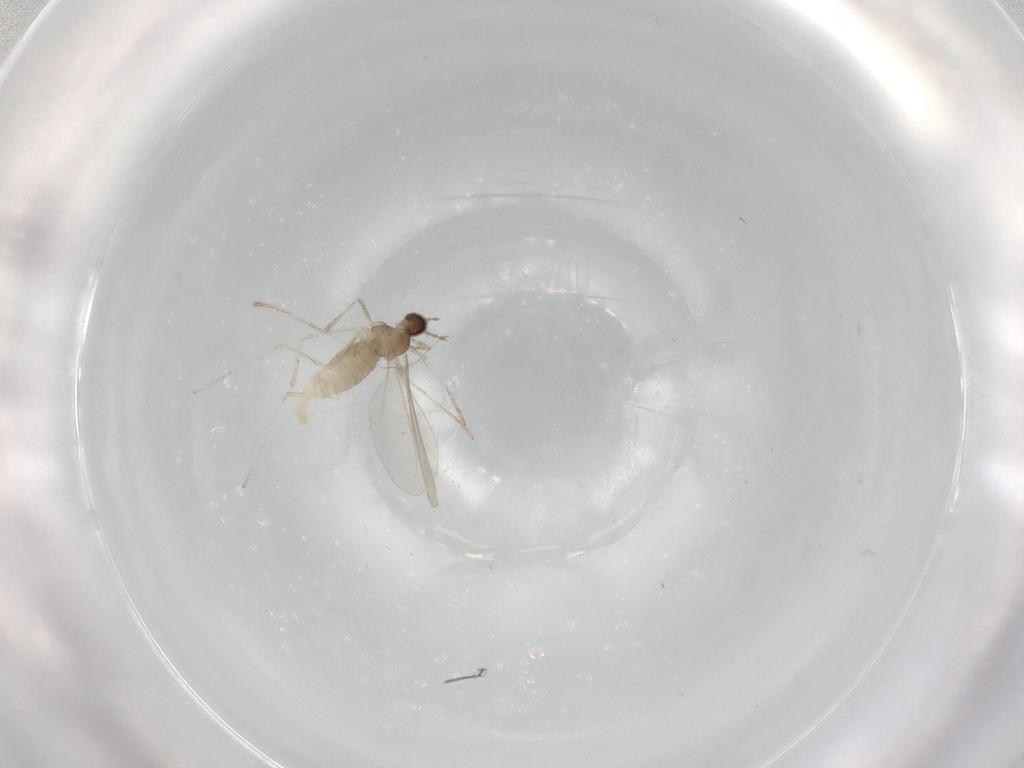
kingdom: Animalia
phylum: Arthropoda
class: Insecta
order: Diptera
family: Cecidomyiidae
